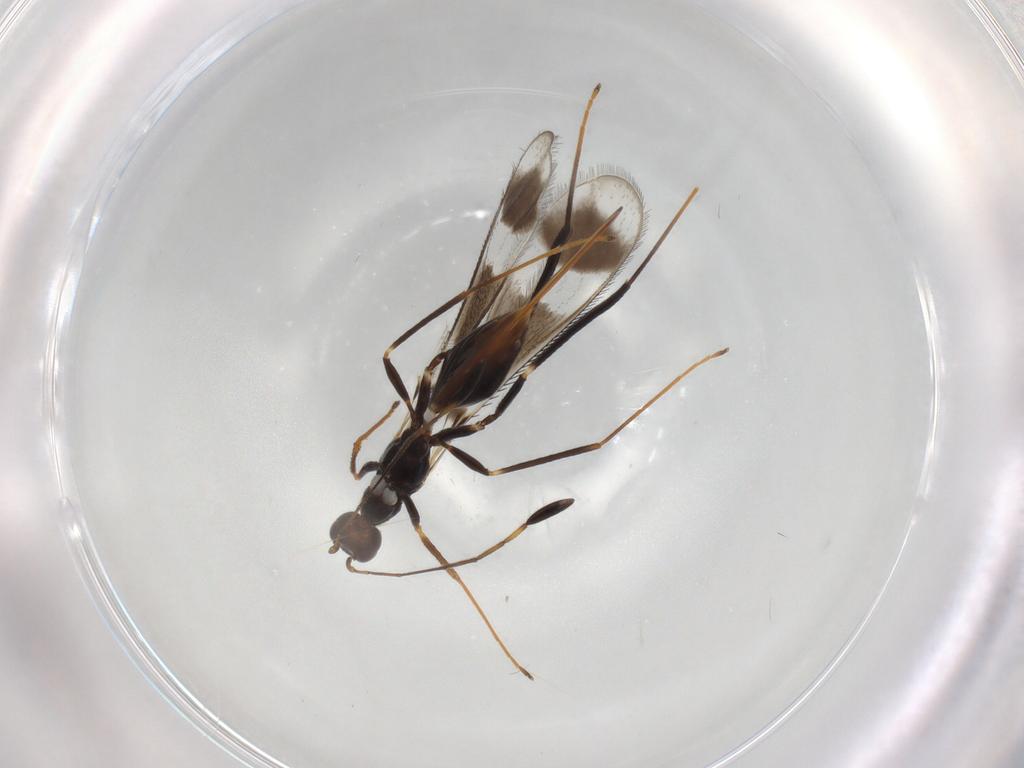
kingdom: Animalia
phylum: Arthropoda
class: Insecta
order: Hymenoptera
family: Mymaridae
